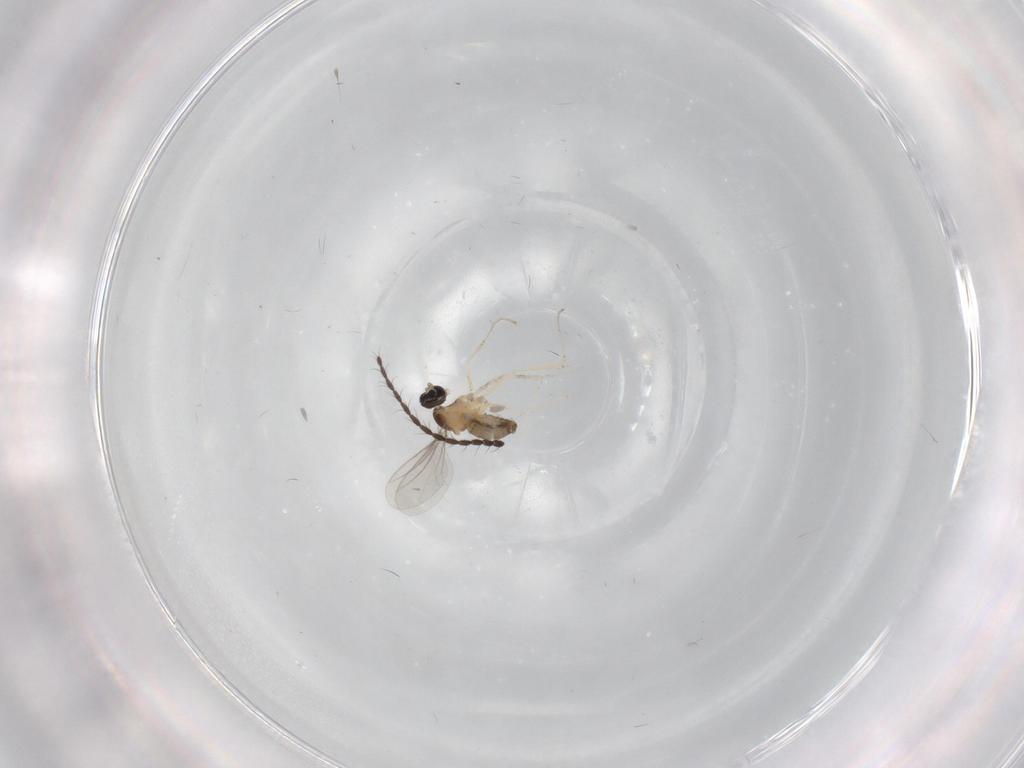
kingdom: Animalia
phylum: Arthropoda
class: Insecta
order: Diptera
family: Cecidomyiidae
